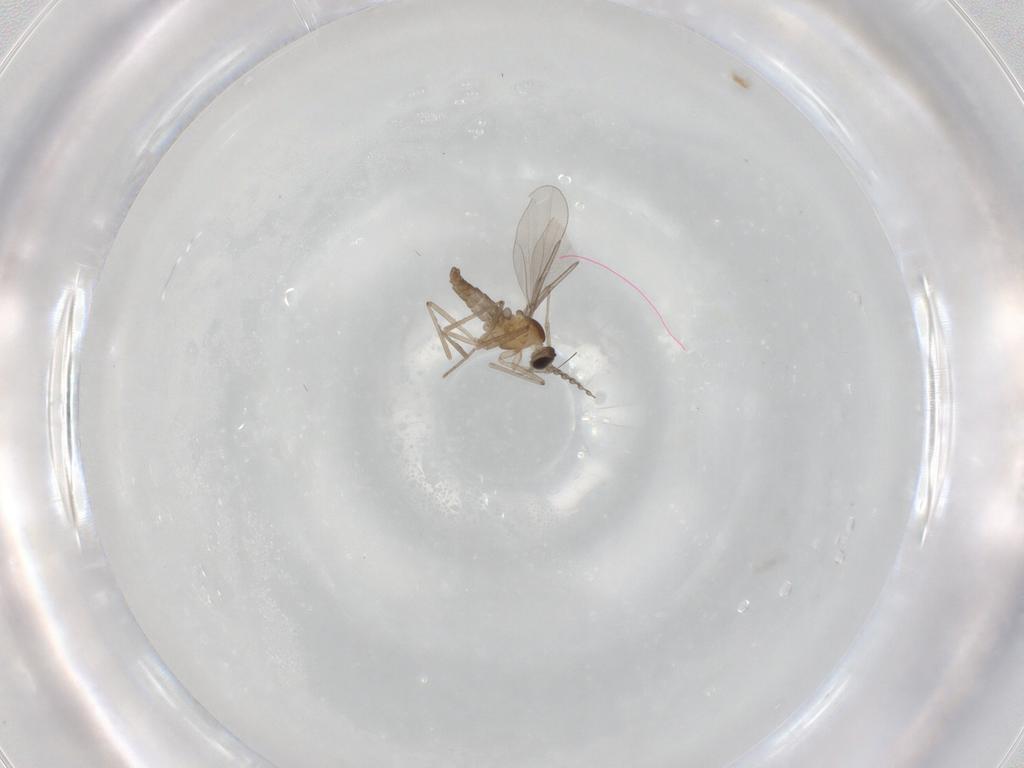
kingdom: Animalia
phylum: Arthropoda
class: Insecta
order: Diptera
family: Cecidomyiidae
